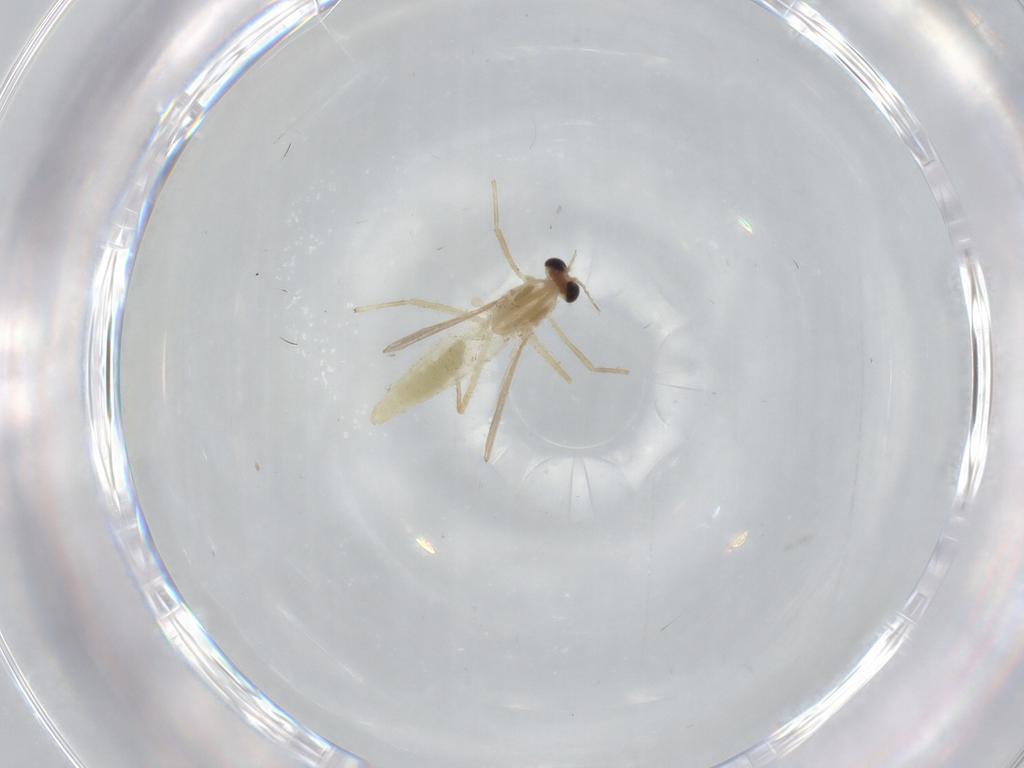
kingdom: Animalia
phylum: Arthropoda
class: Insecta
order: Diptera
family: Chironomidae
